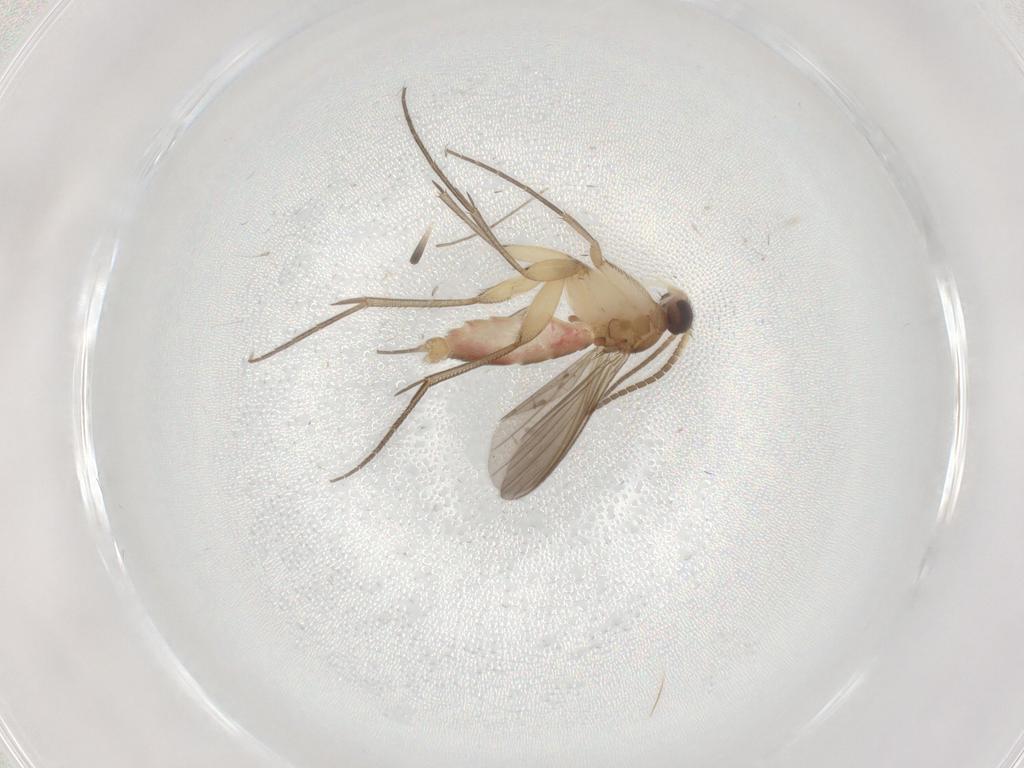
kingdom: Animalia
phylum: Arthropoda
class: Insecta
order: Diptera
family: Mycetophilidae
